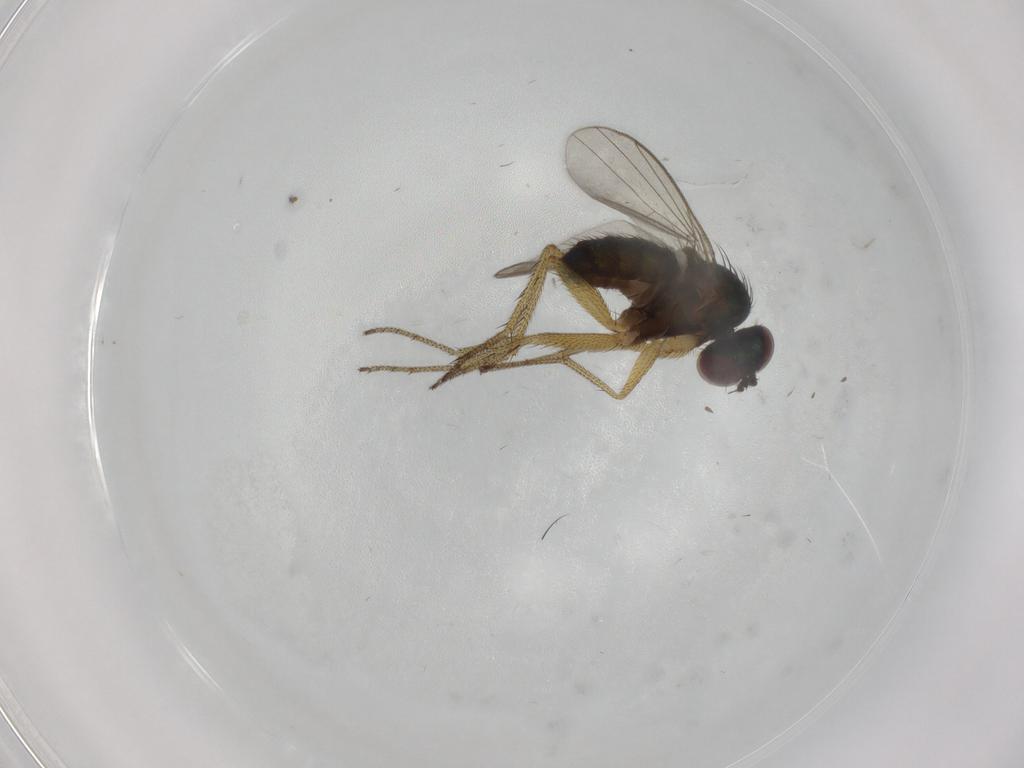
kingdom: Animalia
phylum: Arthropoda
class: Insecta
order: Diptera
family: Dolichopodidae
